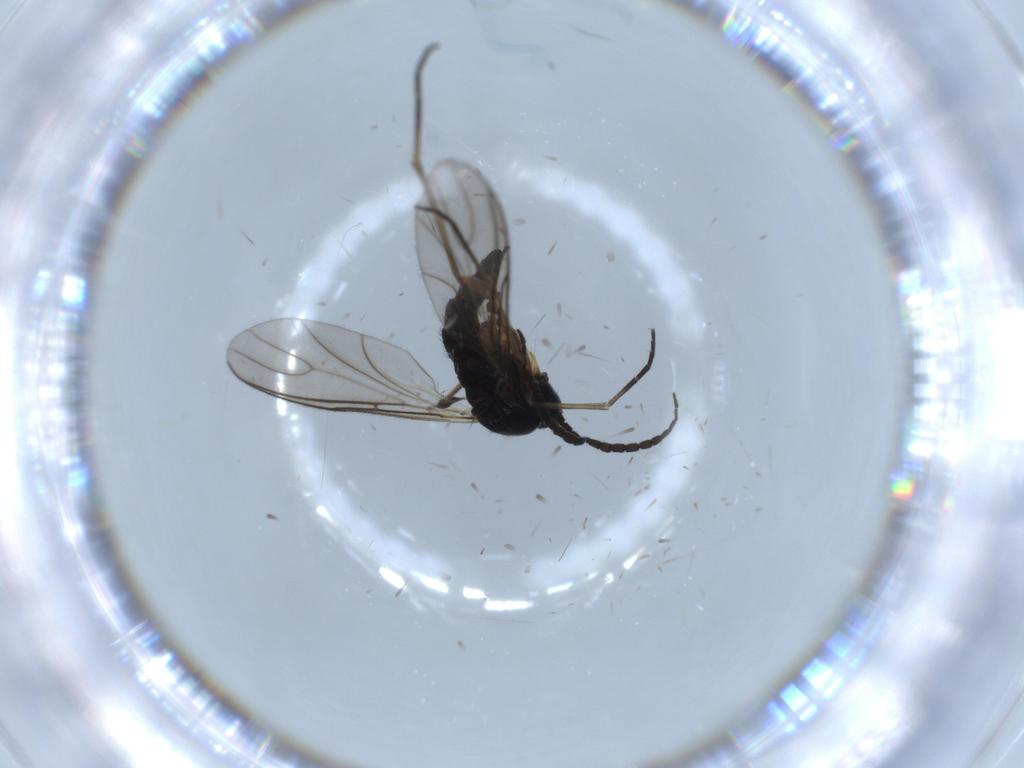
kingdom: Animalia
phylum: Arthropoda
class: Insecta
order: Diptera
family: Sciaridae
